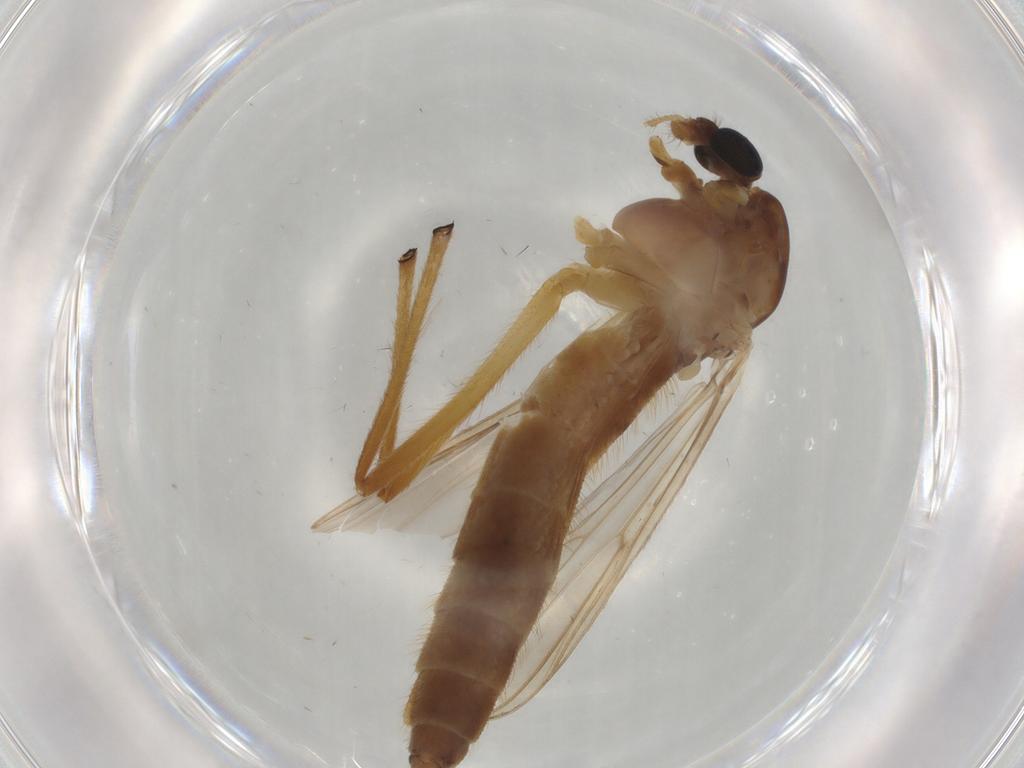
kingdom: Animalia
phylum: Arthropoda
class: Insecta
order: Diptera
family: Chironomidae
